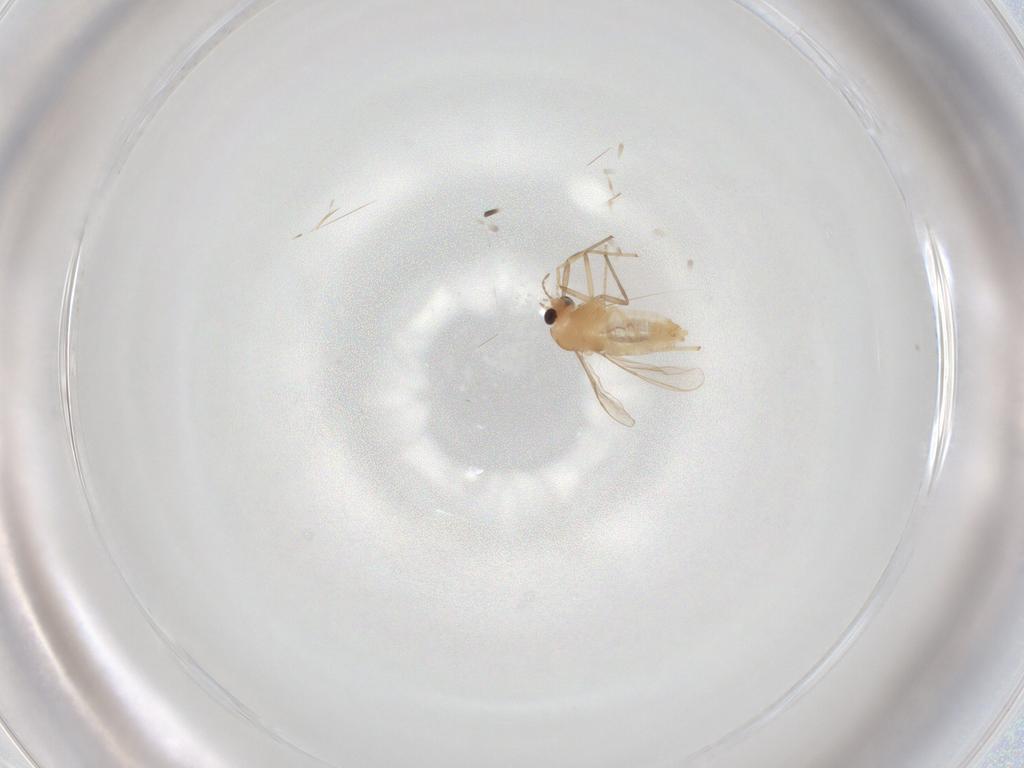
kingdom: Animalia
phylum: Arthropoda
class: Insecta
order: Diptera
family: Chironomidae
